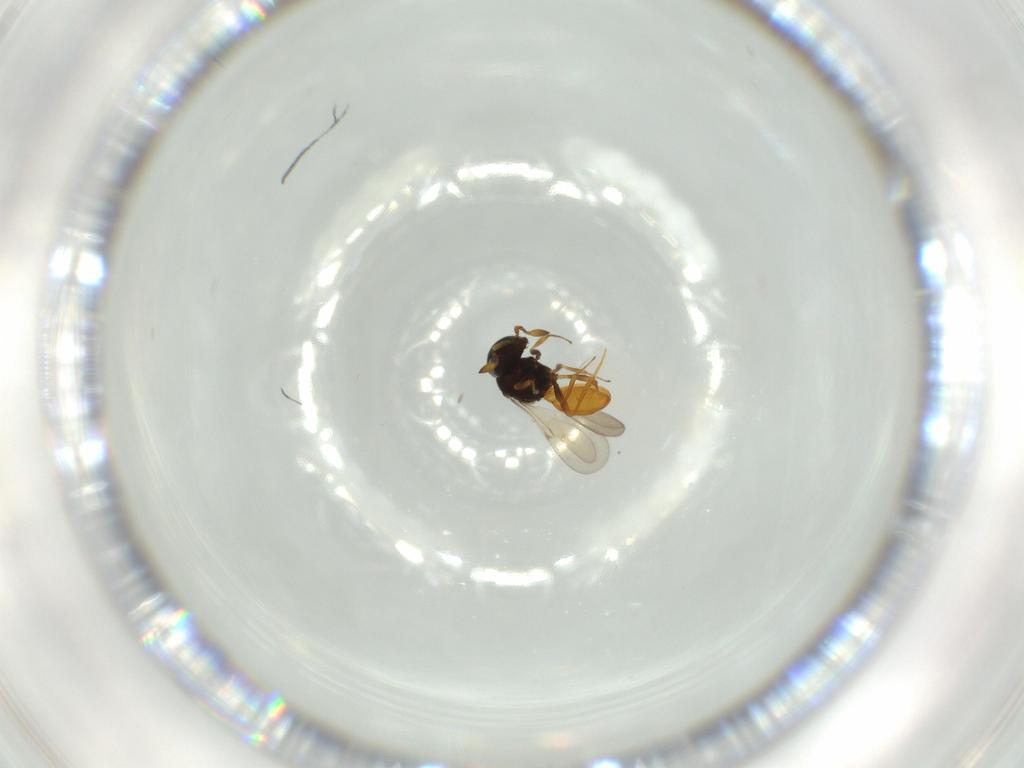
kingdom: Animalia
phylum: Arthropoda
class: Insecta
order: Hymenoptera
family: Scelionidae
